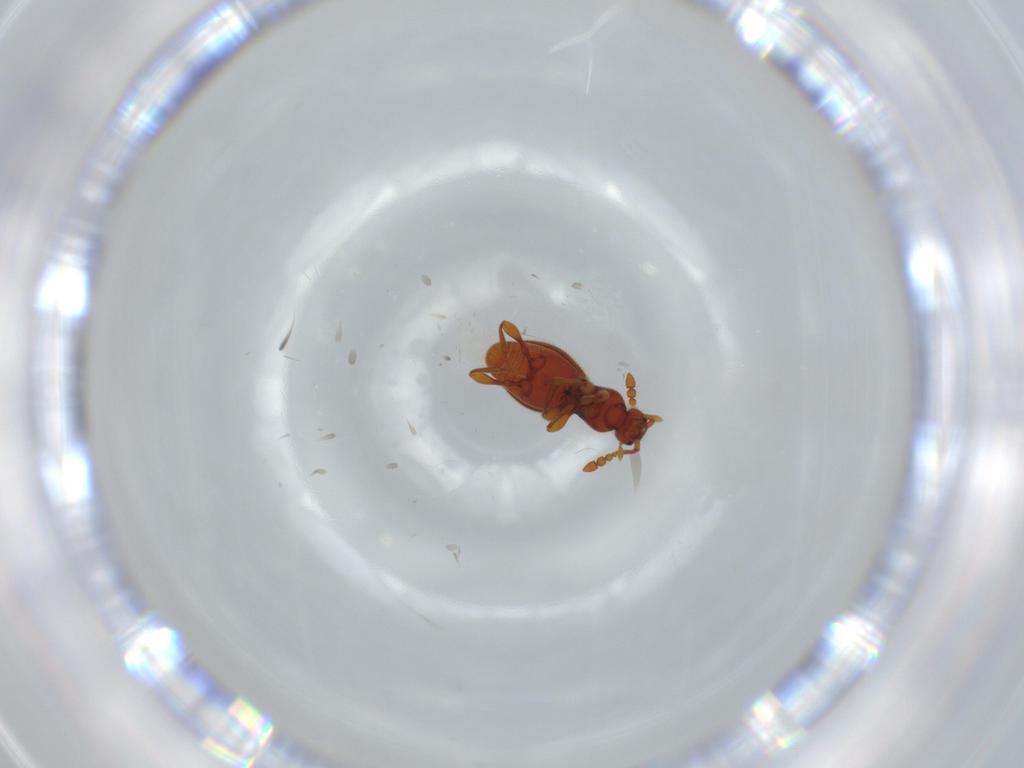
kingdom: Animalia
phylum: Arthropoda
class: Insecta
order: Coleoptera
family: Staphylinidae
